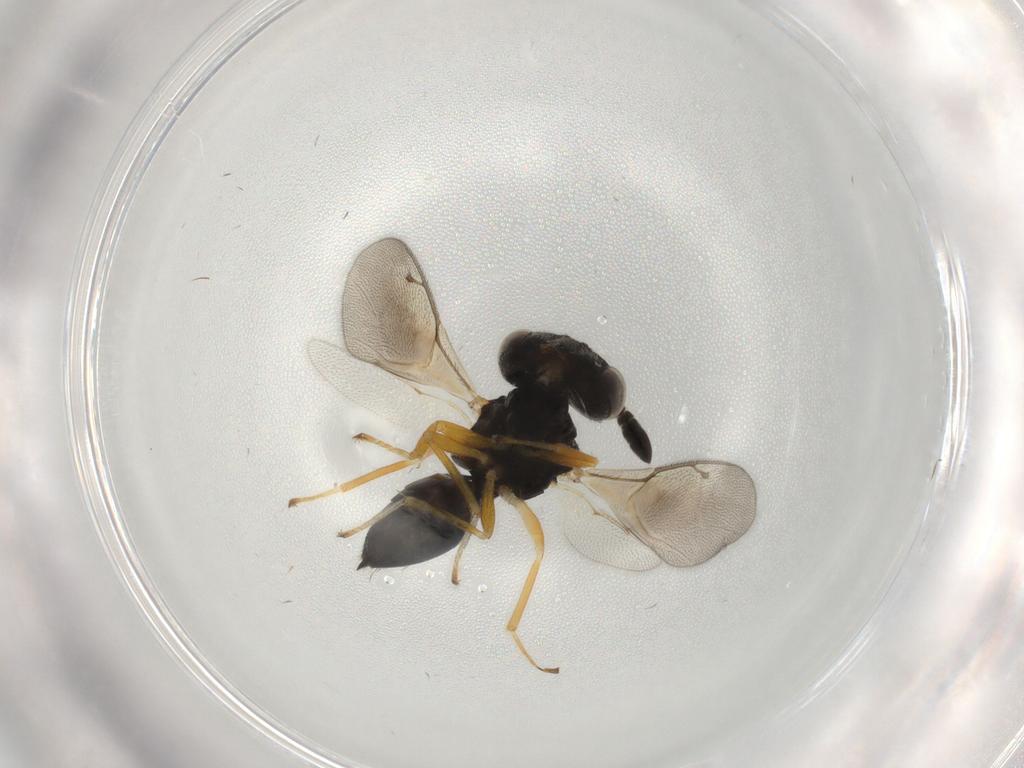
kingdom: Animalia
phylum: Arthropoda
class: Insecta
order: Hymenoptera
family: Pteromalidae
